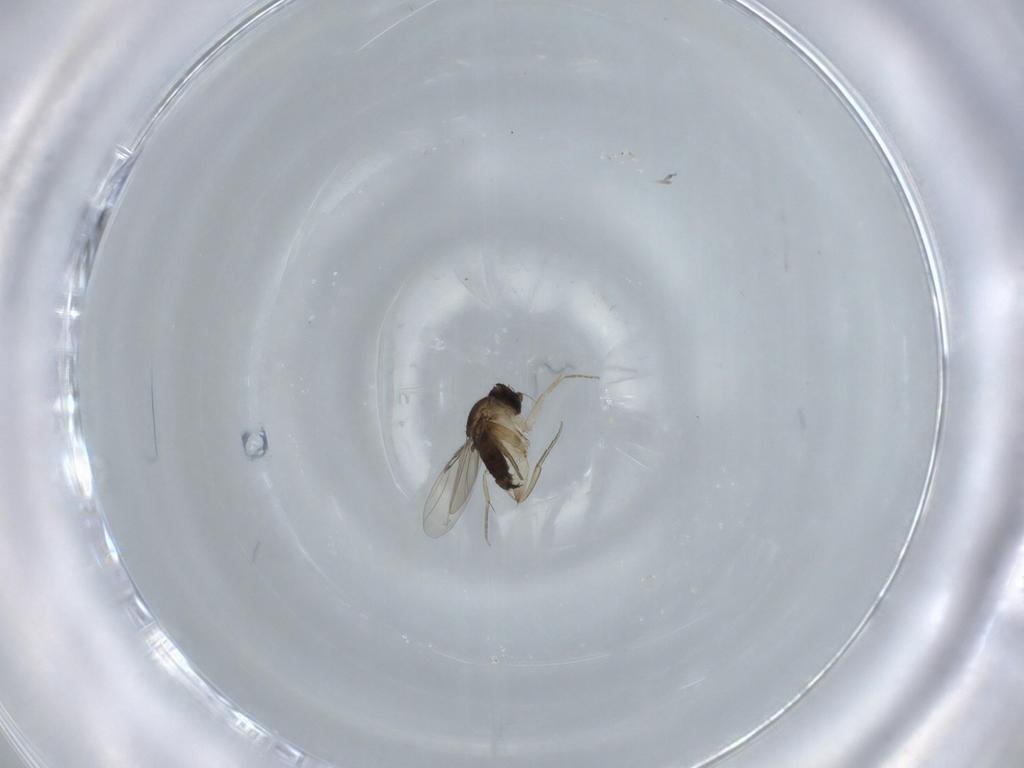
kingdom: Animalia
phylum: Arthropoda
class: Insecta
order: Diptera
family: Phoridae
